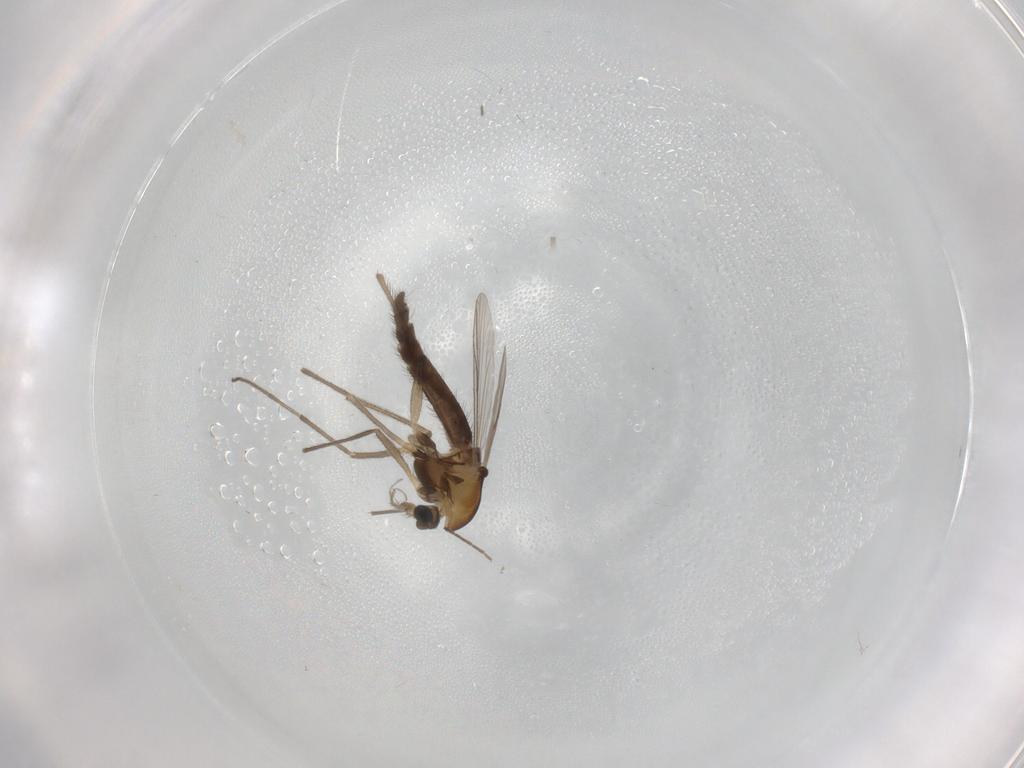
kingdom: Animalia
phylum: Arthropoda
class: Insecta
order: Diptera
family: Chironomidae
